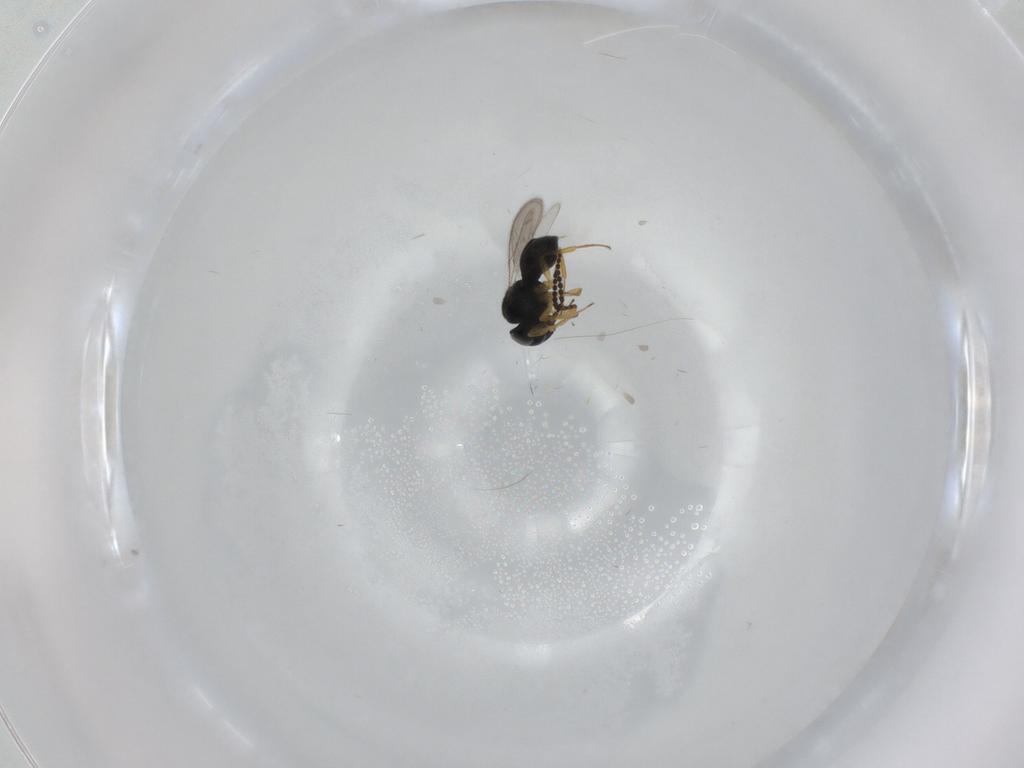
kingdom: Animalia
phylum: Arthropoda
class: Insecta
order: Hymenoptera
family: Scelionidae
